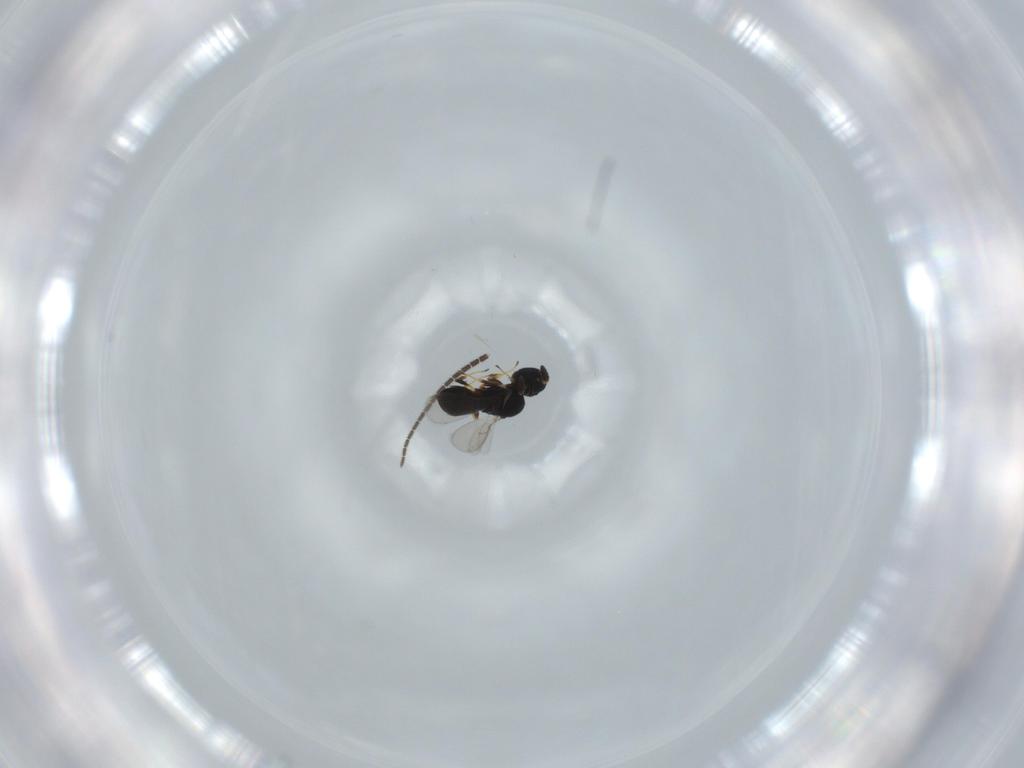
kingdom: Animalia
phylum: Arthropoda
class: Insecta
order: Hymenoptera
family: Scelionidae
